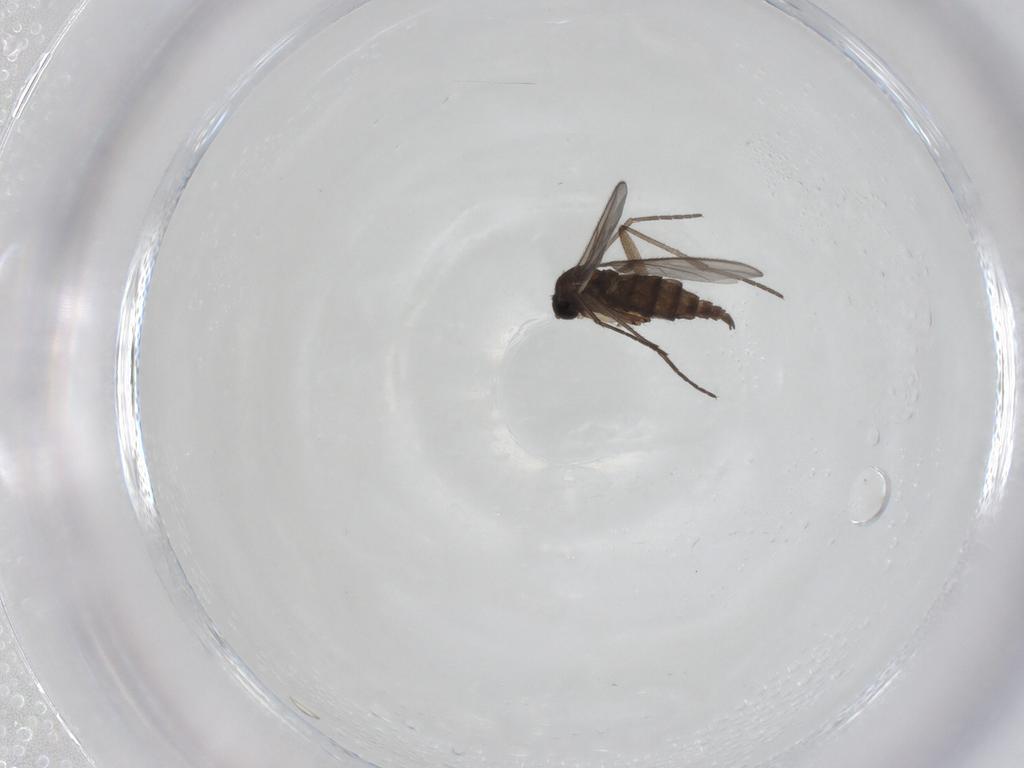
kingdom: Animalia
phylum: Arthropoda
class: Insecta
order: Diptera
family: Sciaridae
